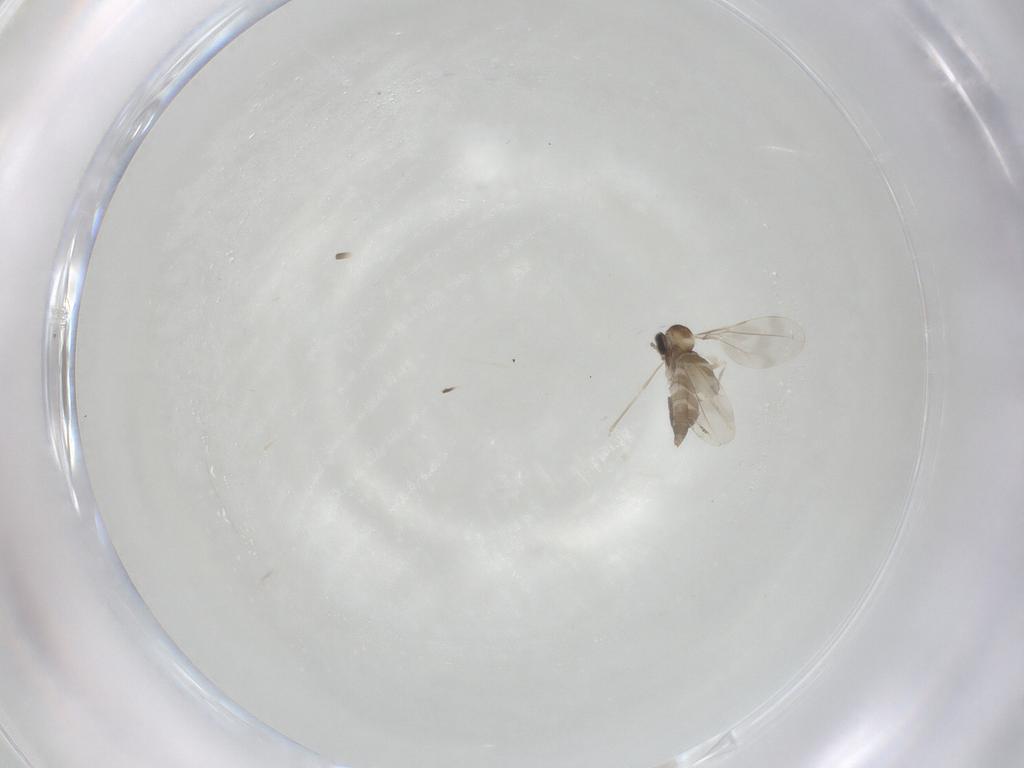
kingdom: Animalia
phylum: Arthropoda
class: Insecta
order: Diptera
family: Cecidomyiidae
